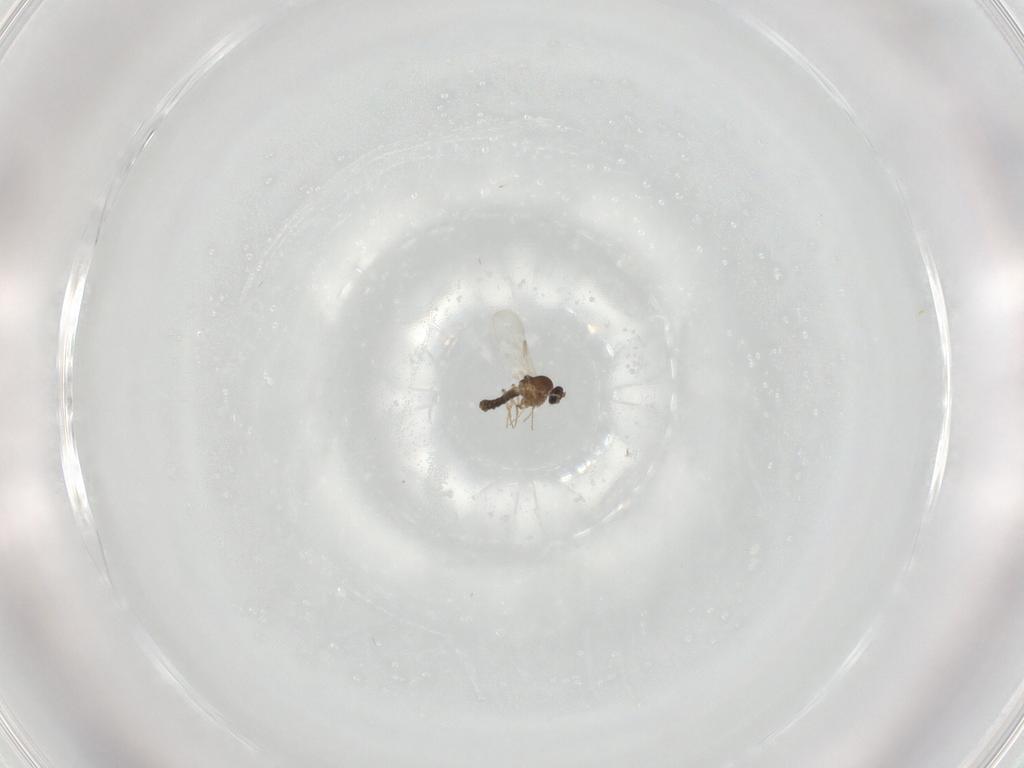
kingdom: Animalia
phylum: Arthropoda
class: Insecta
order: Diptera
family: Ceratopogonidae
